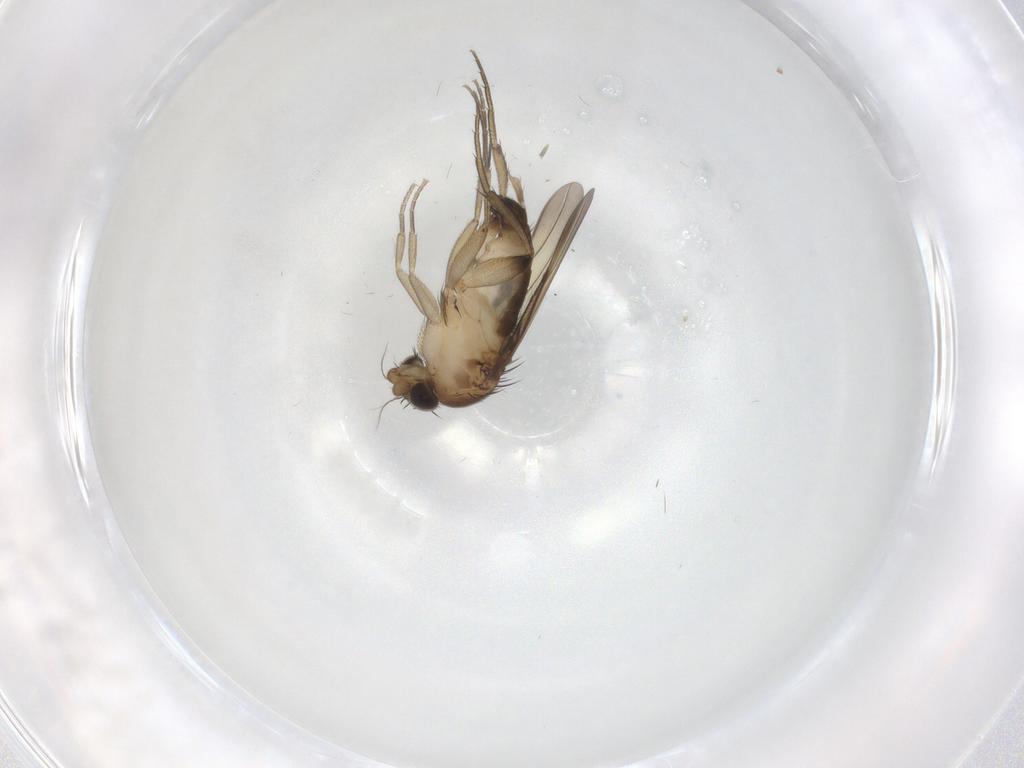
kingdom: Animalia
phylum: Arthropoda
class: Insecta
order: Diptera
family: Phoridae
